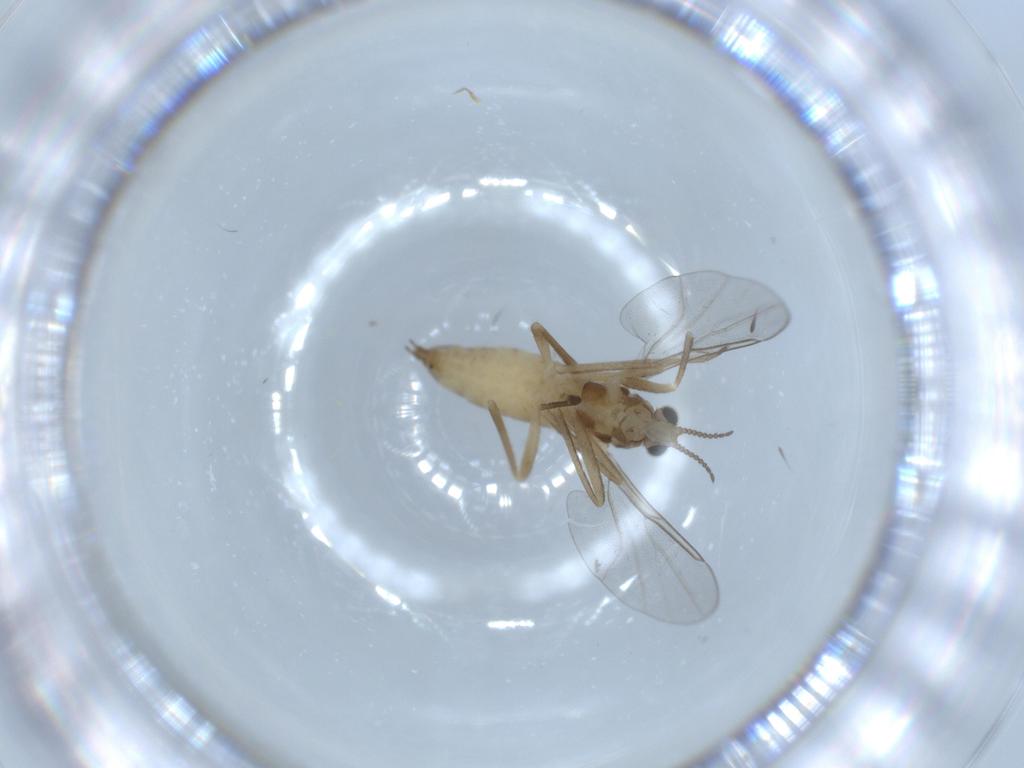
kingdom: Animalia
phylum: Arthropoda
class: Insecta
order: Diptera
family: Cecidomyiidae
